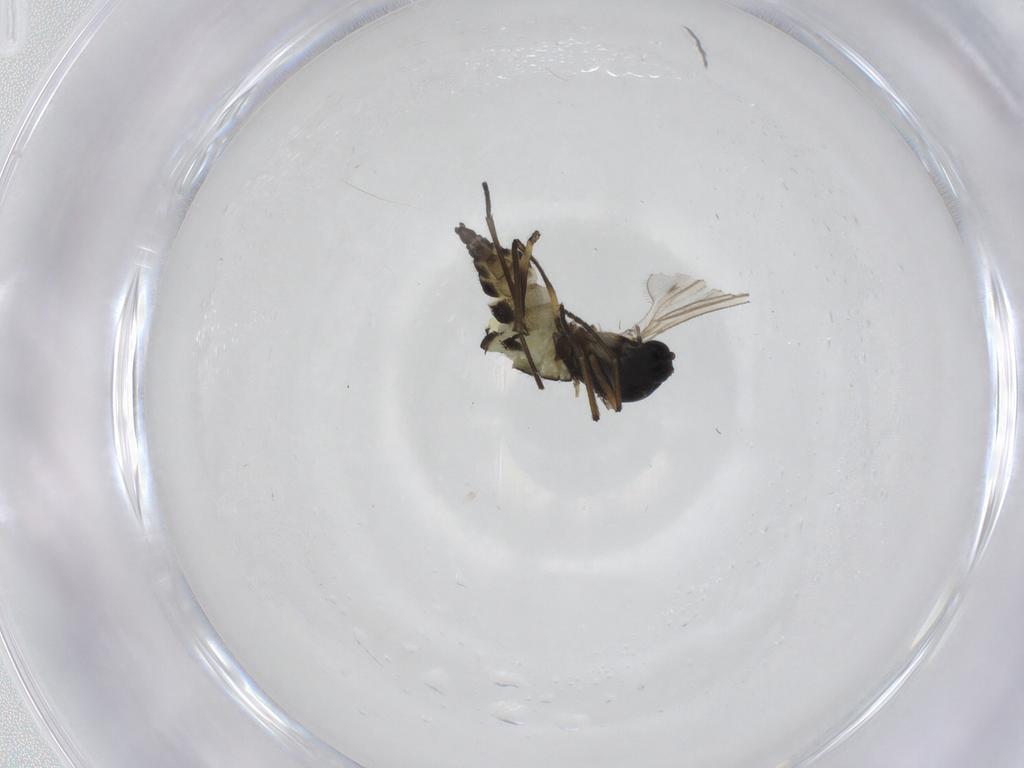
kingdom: Animalia
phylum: Arthropoda
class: Insecta
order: Diptera
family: Sciaridae
